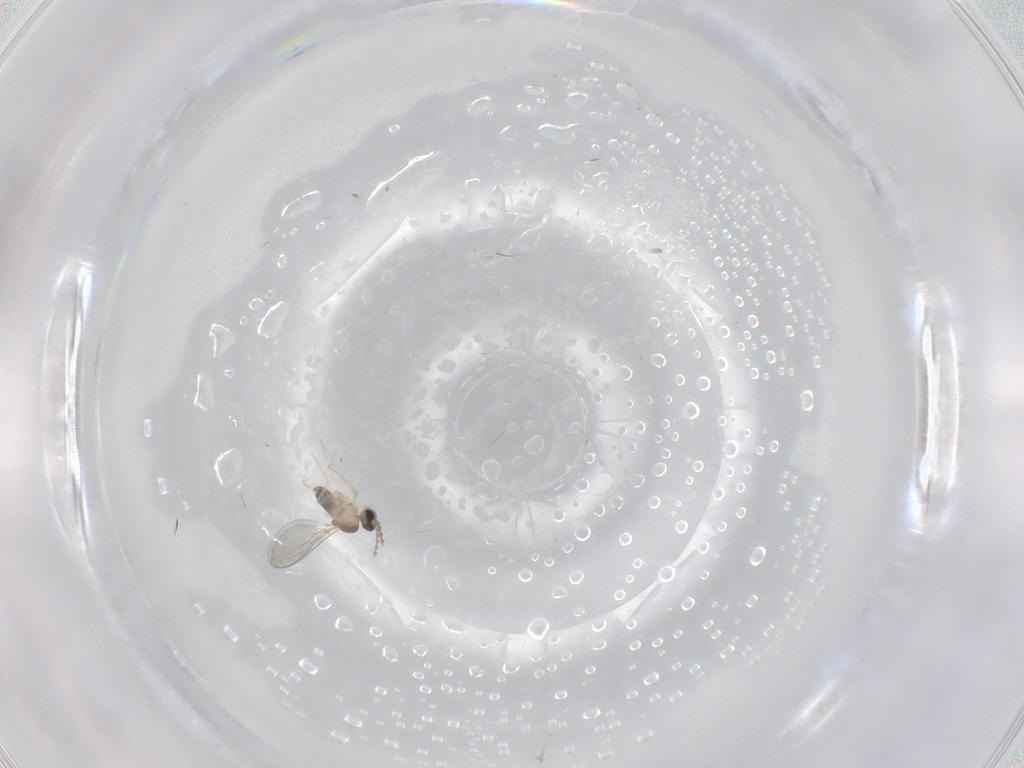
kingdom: Animalia
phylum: Arthropoda
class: Insecta
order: Diptera
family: Cecidomyiidae
